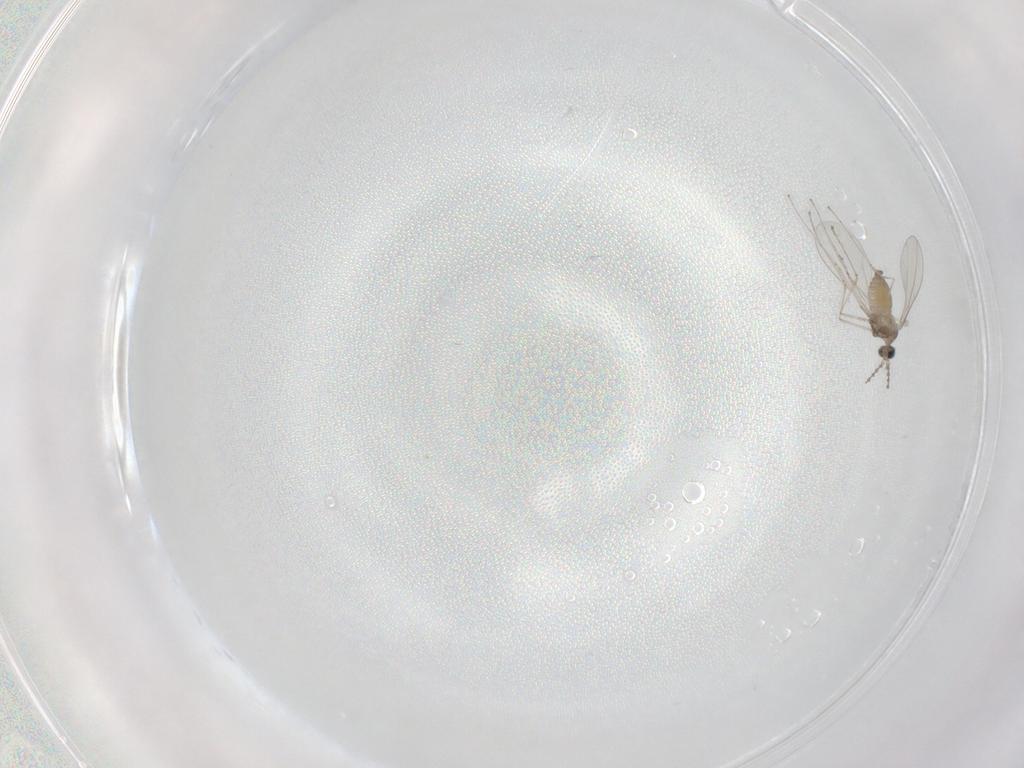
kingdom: Animalia
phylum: Arthropoda
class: Insecta
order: Diptera
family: Cecidomyiidae
